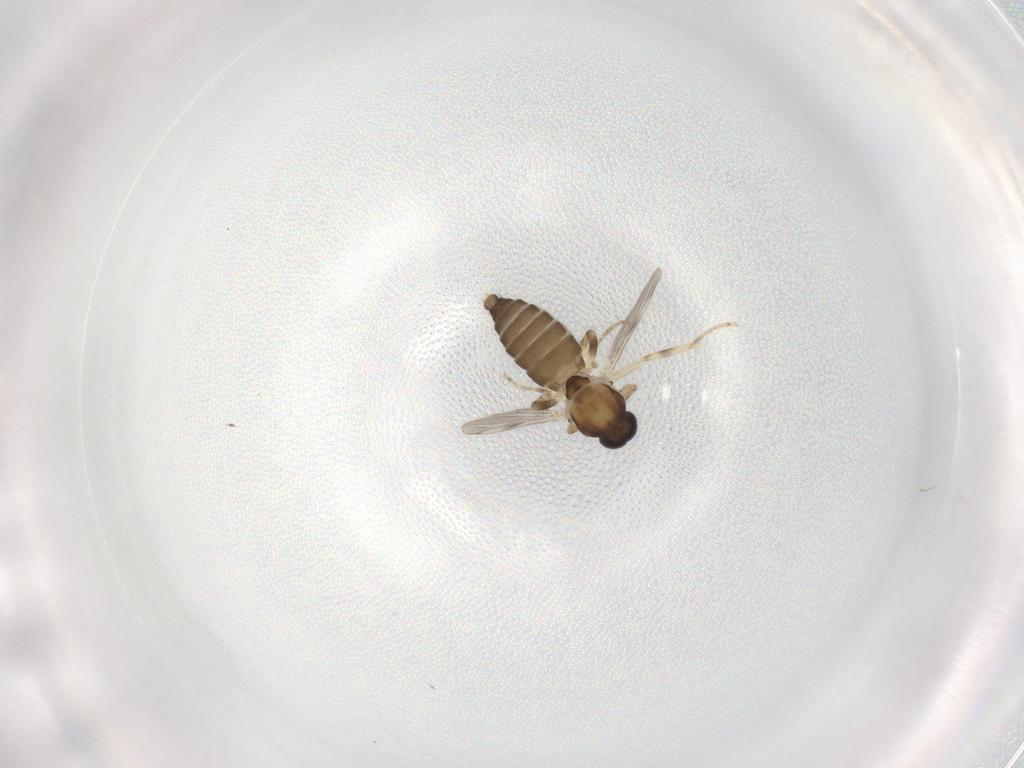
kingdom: Animalia
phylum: Arthropoda
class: Insecta
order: Diptera
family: Ceratopogonidae
